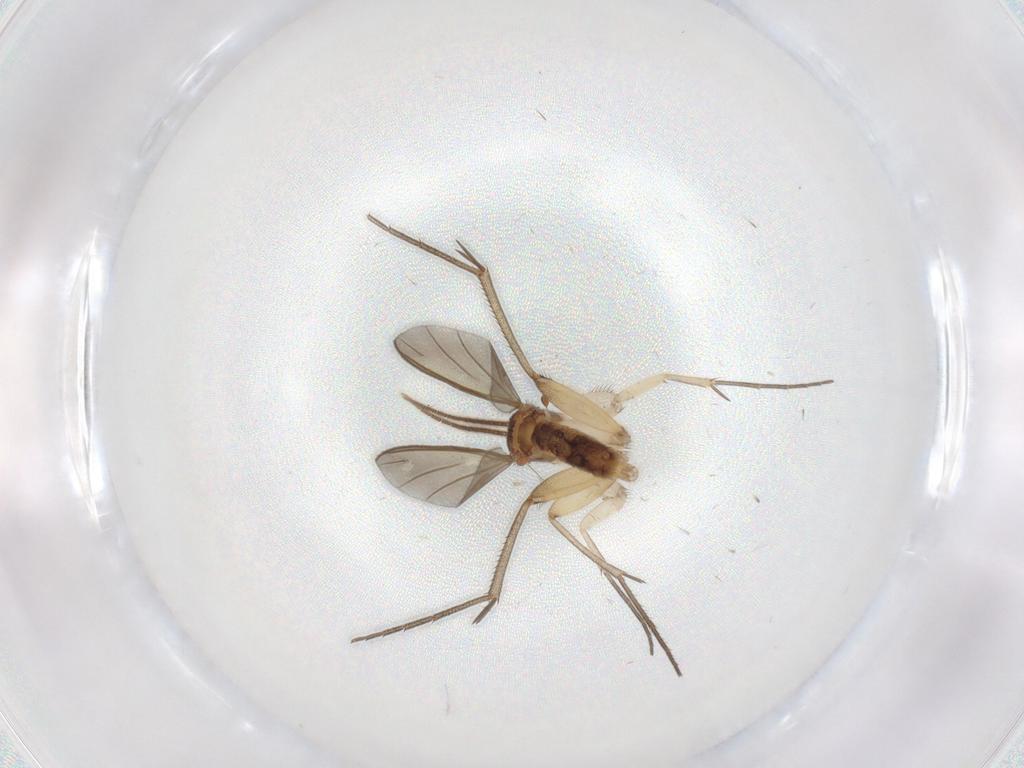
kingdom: Animalia
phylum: Arthropoda
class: Insecta
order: Diptera
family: Mycetophilidae
